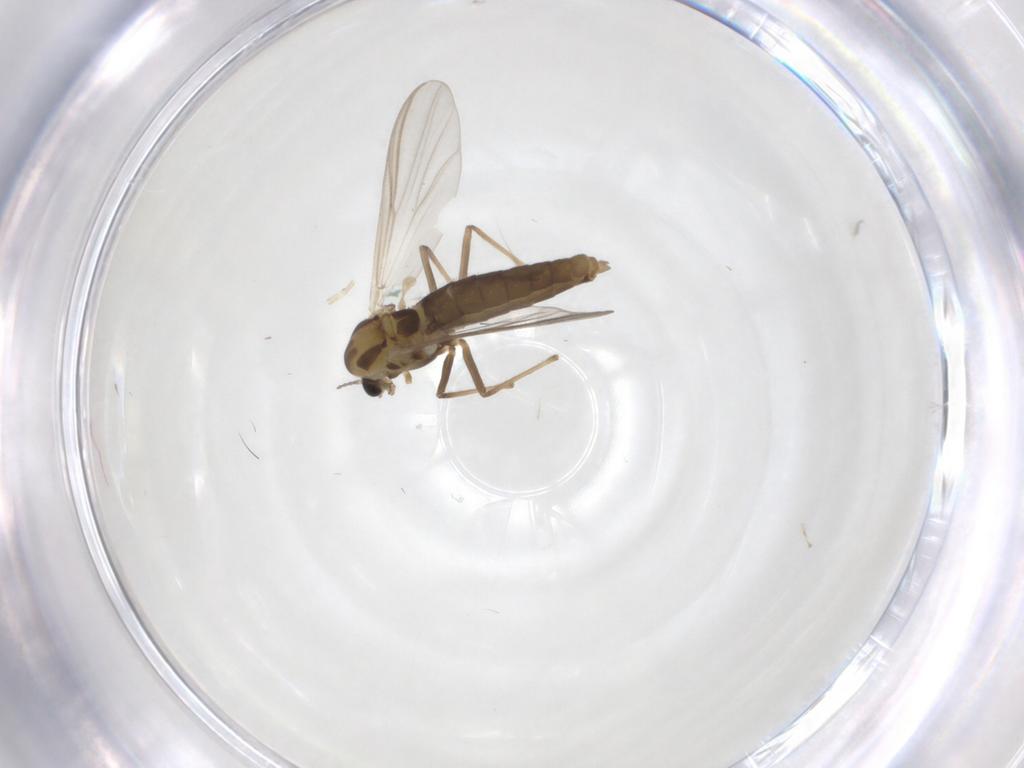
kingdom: Animalia
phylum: Arthropoda
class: Insecta
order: Diptera
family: Chironomidae
